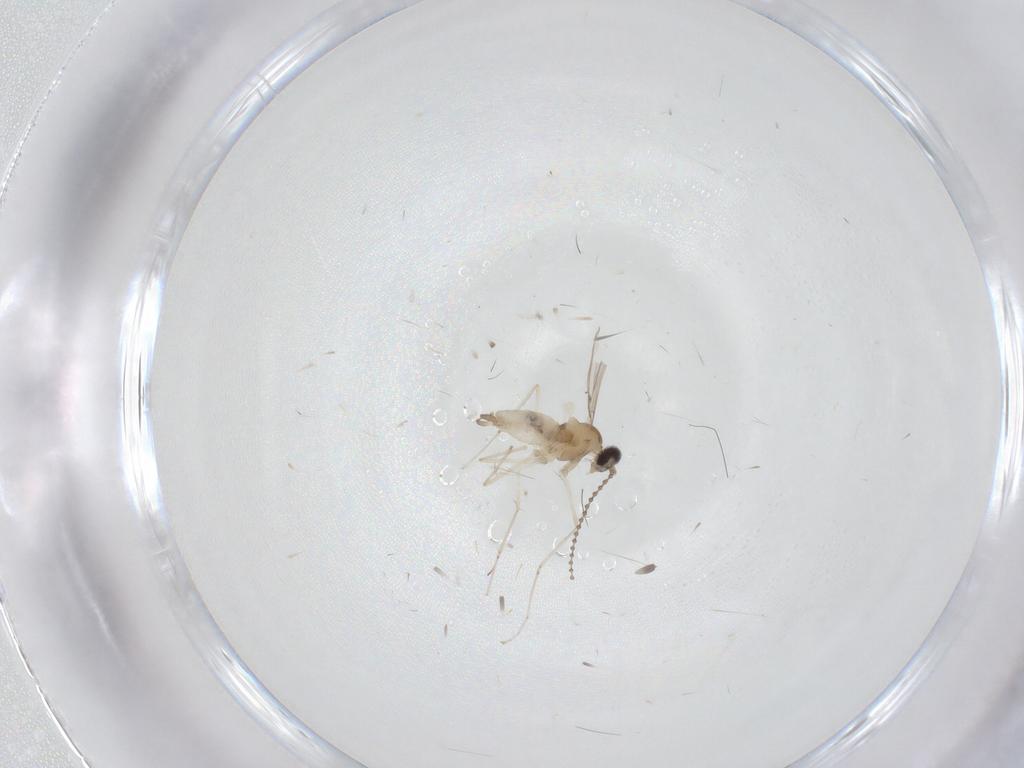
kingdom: Animalia
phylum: Arthropoda
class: Insecta
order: Diptera
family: Cecidomyiidae
